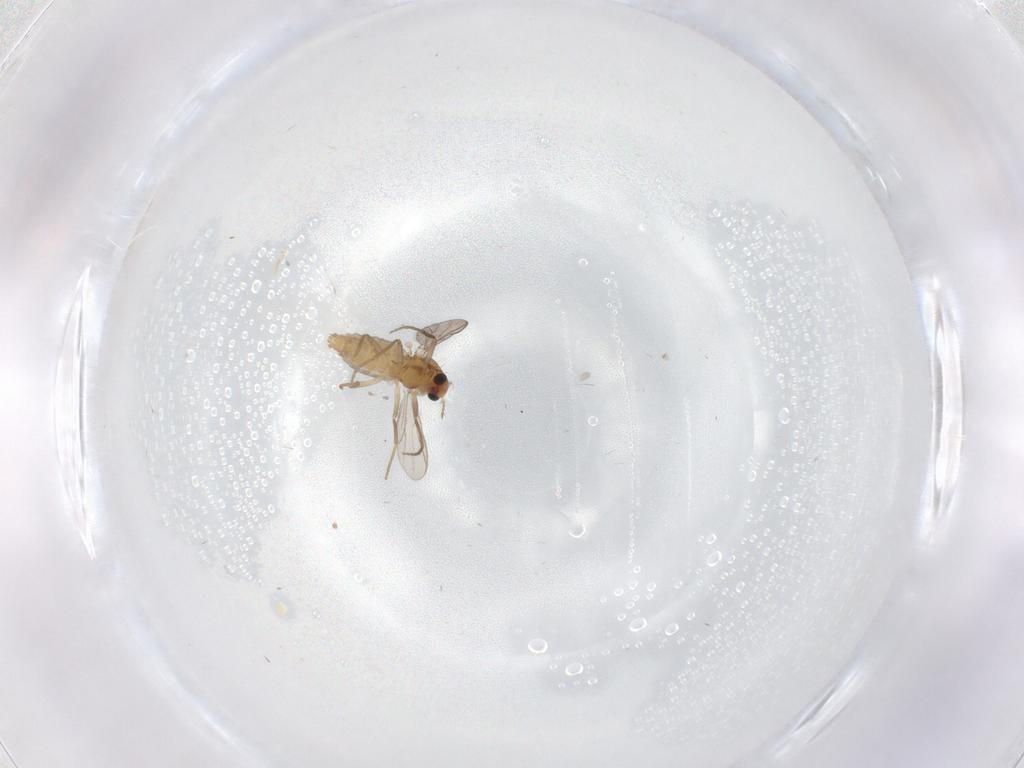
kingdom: Animalia
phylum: Arthropoda
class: Insecta
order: Diptera
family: Chironomidae
